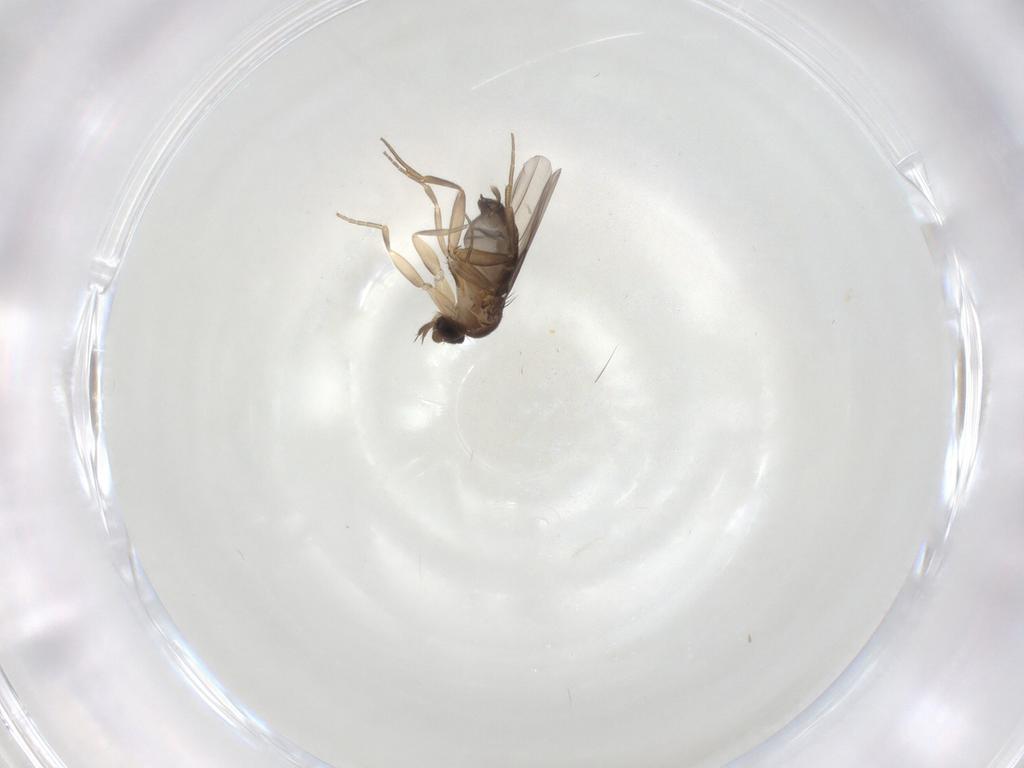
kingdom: Animalia
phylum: Arthropoda
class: Insecta
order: Diptera
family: Phoridae
